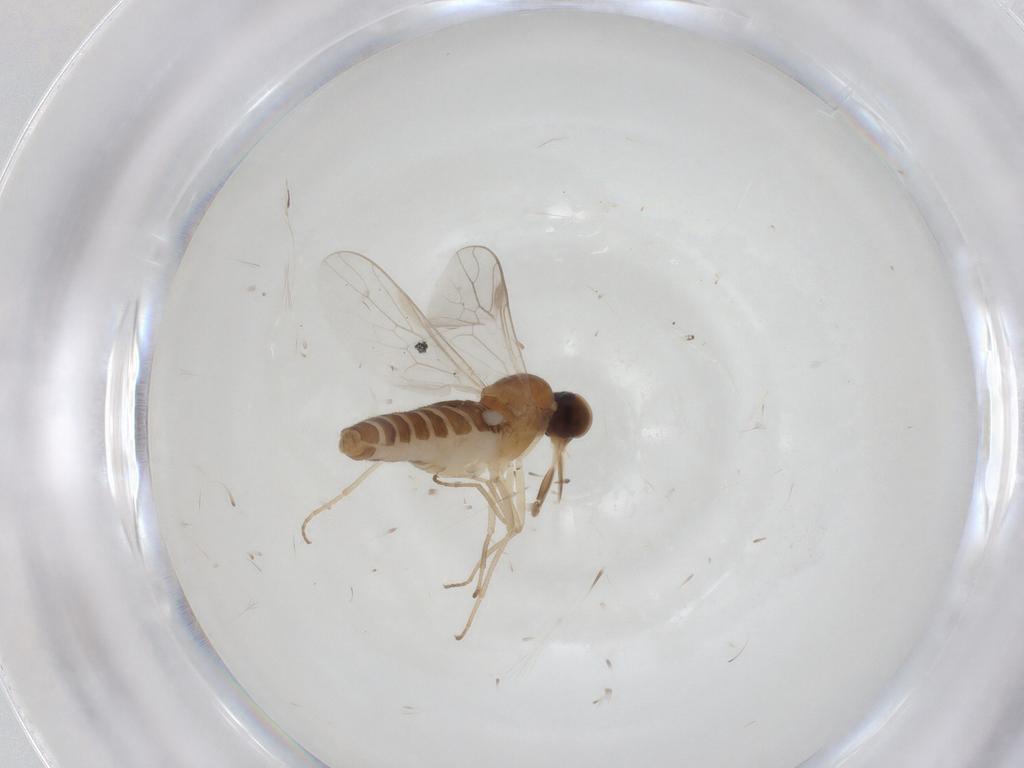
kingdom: Animalia
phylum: Arthropoda
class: Insecta
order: Diptera
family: Scenopinidae
